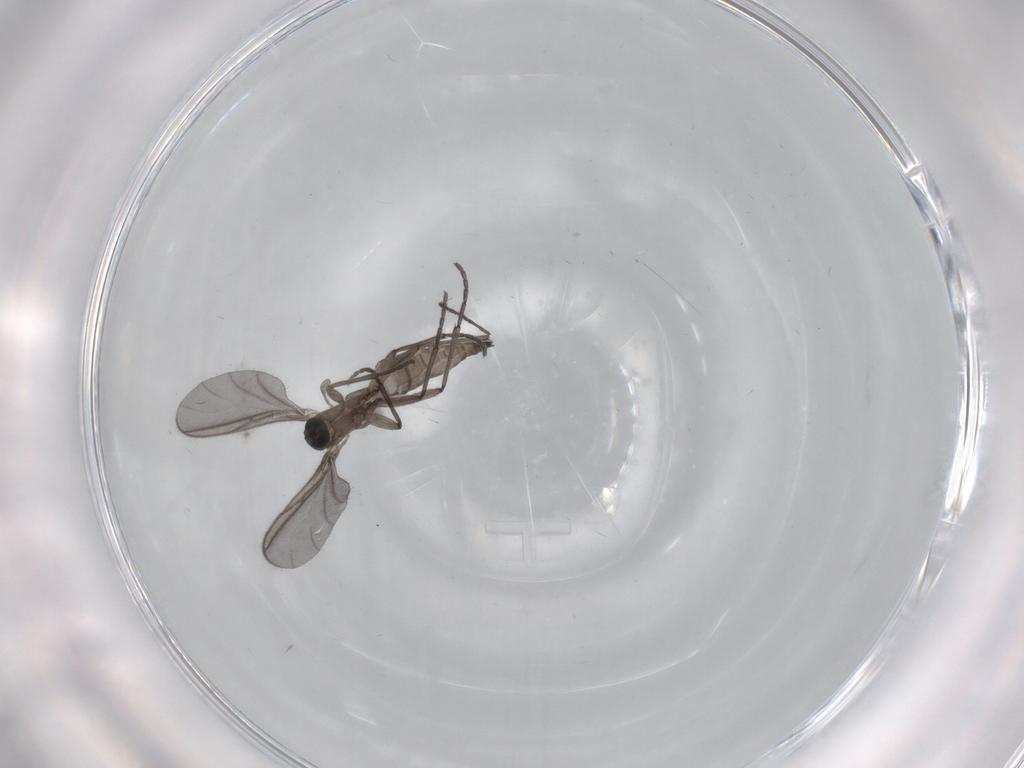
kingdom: Animalia
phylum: Arthropoda
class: Insecta
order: Diptera
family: Sciaridae
